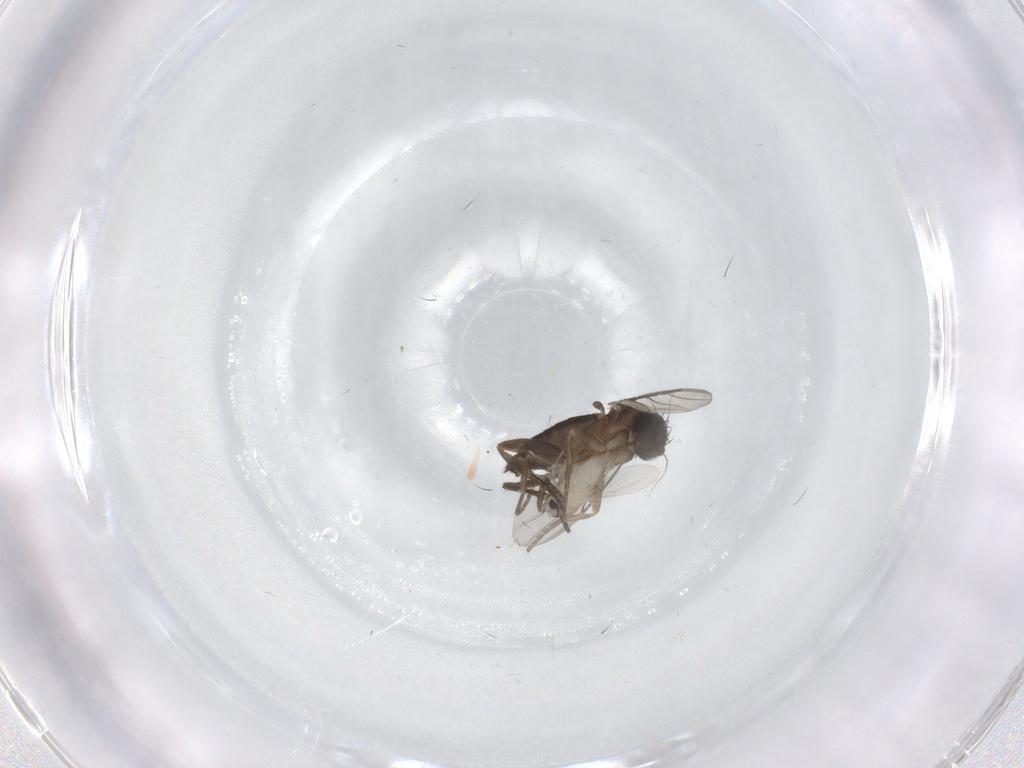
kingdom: Animalia
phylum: Arthropoda
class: Insecta
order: Diptera
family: Phoridae
